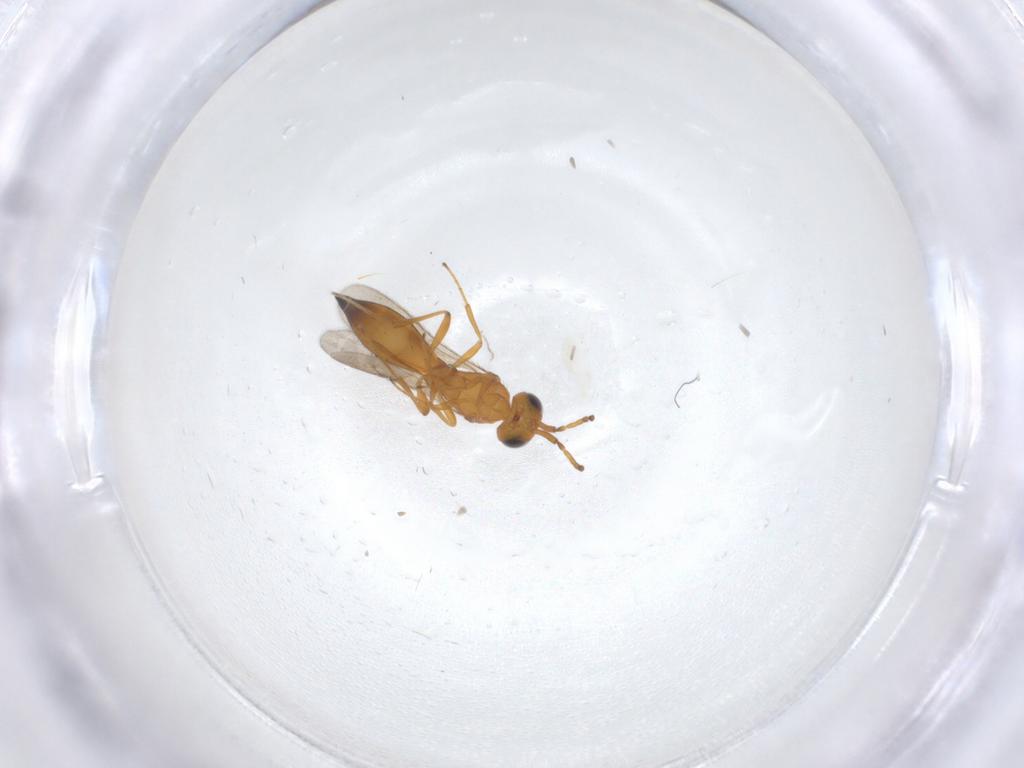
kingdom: Animalia
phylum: Arthropoda
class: Insecta
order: Hymenoptera
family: Scelionidae
